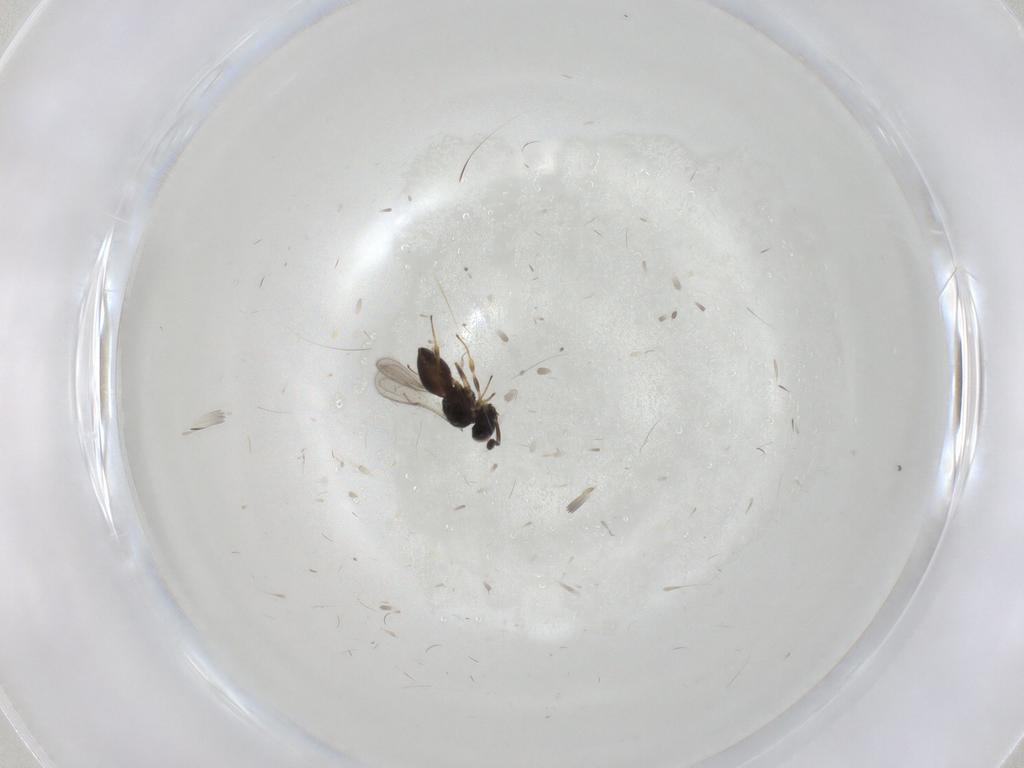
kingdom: Animalia
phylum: Arthropoda
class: Insecta
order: Hymenoptera
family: Scelionidae
